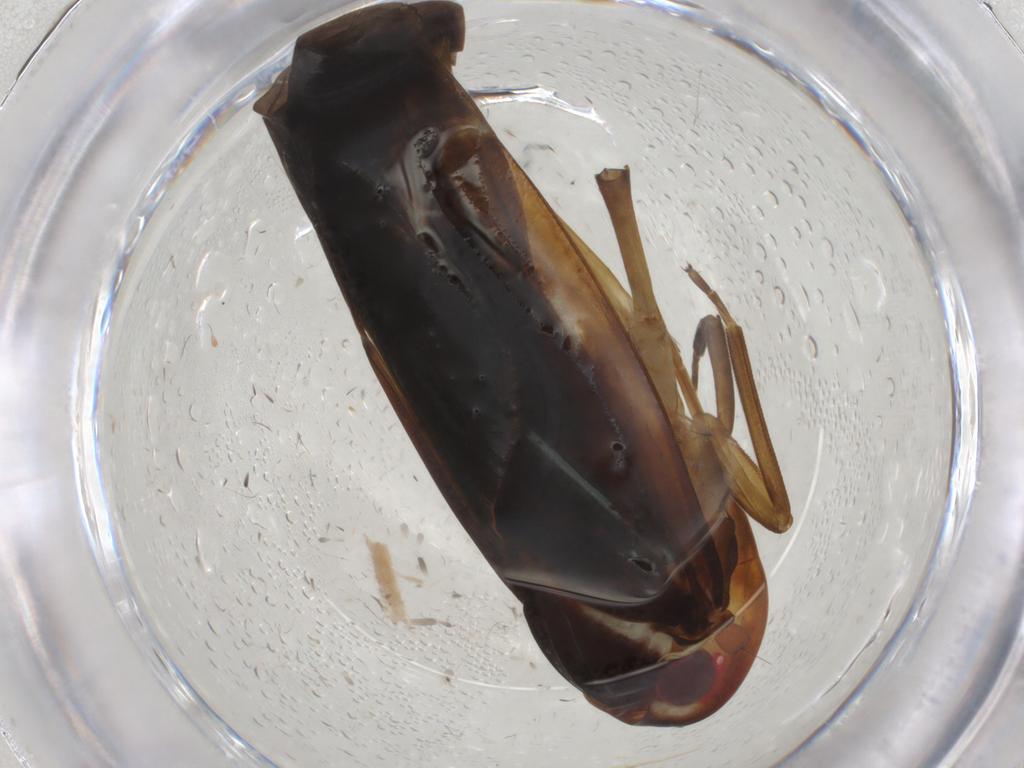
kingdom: Animalia
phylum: Arthropoda
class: Insecta
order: Hemiptera
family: Achilidae
